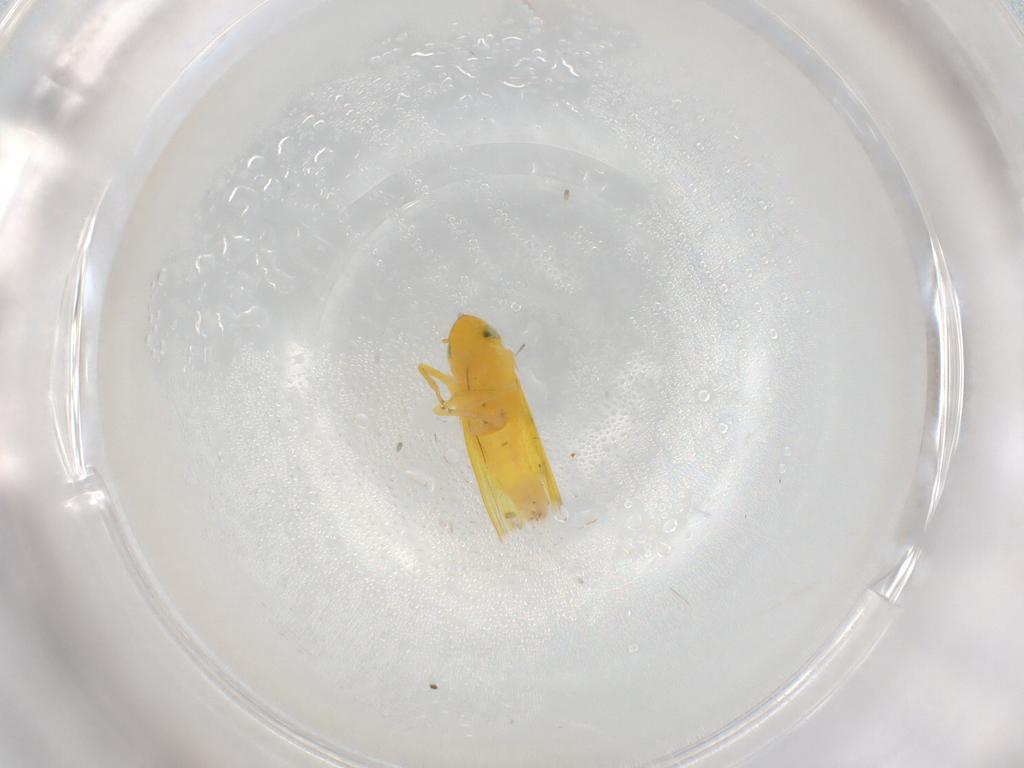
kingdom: Animalia
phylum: Arthropoda
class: Insecta
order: Hemiptera
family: Cicadellidae
